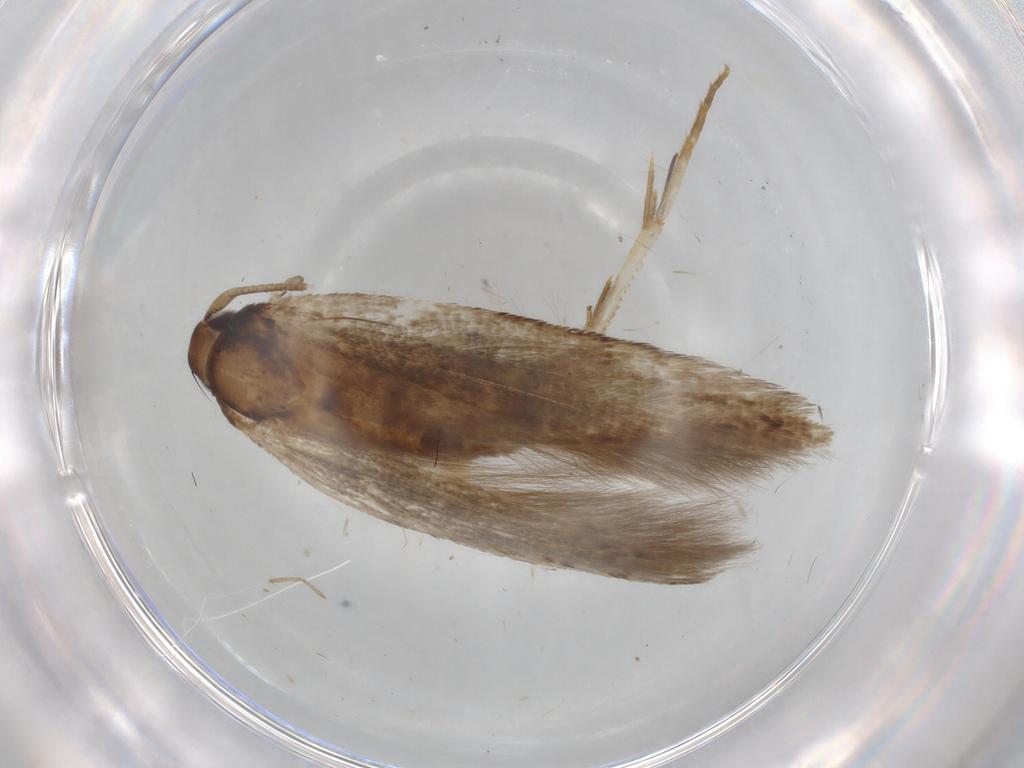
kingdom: Animalia
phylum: Arthropoda
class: Insecta
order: Lepidoptera
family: Cosmopterigidae
